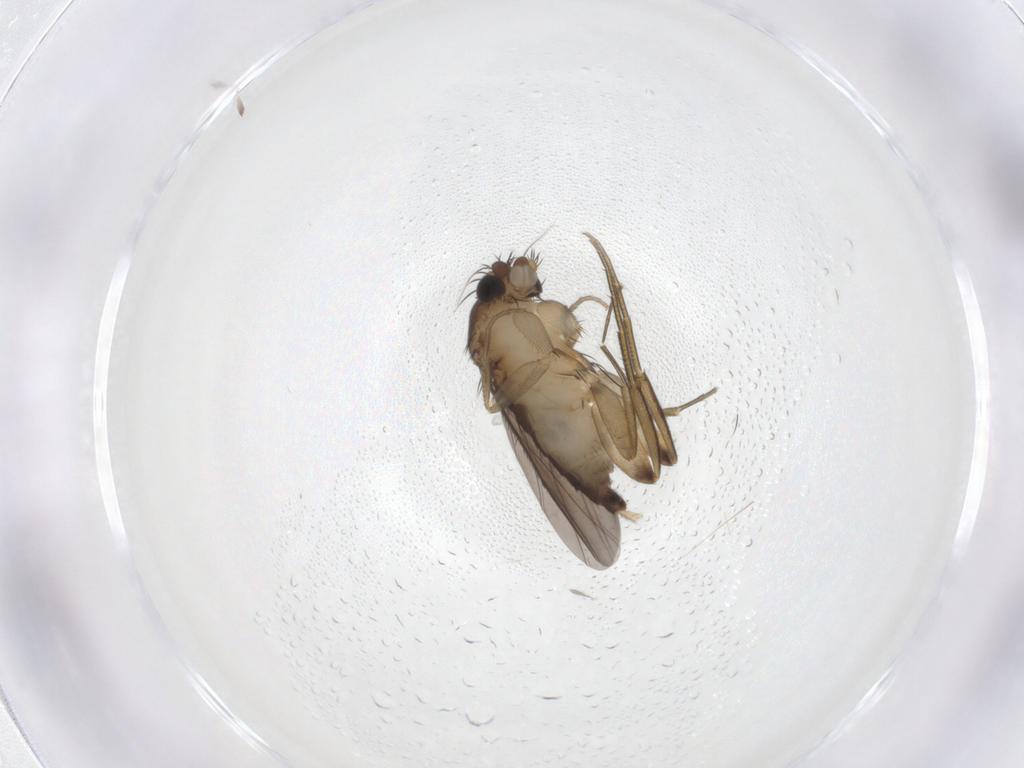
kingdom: Animalia
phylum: Arthropoda
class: Insecta
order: Diptera
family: Phoridae
